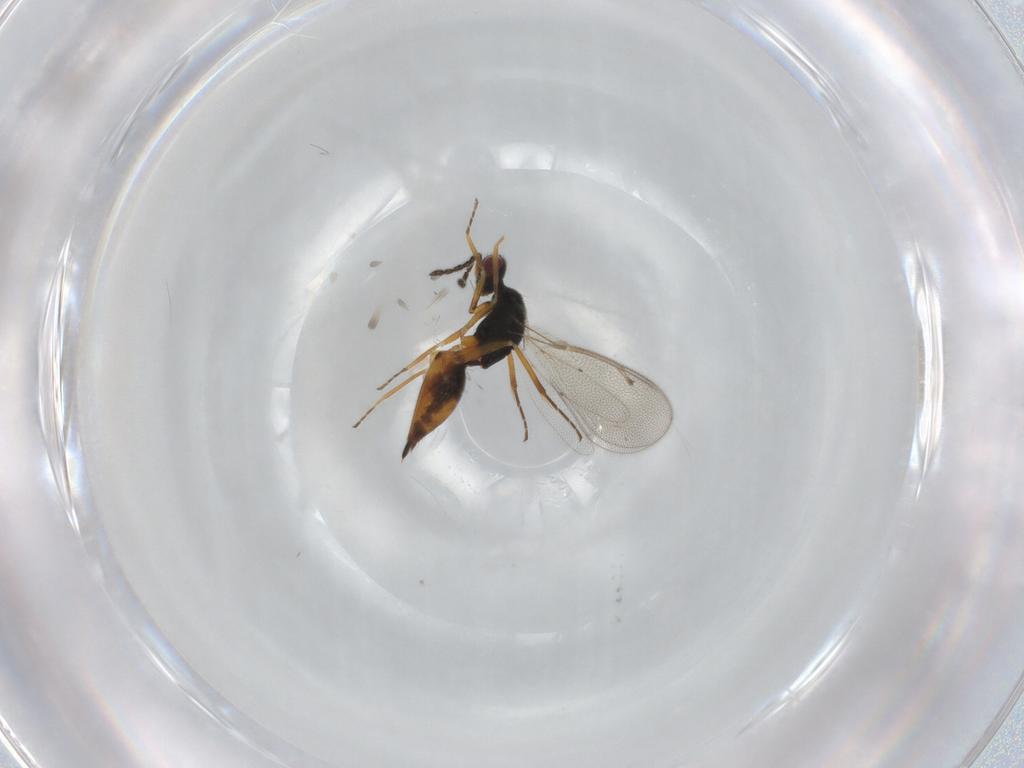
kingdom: Animalia
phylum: Arthropoda
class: Insecta
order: Hymenoptera
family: Eulophidae
